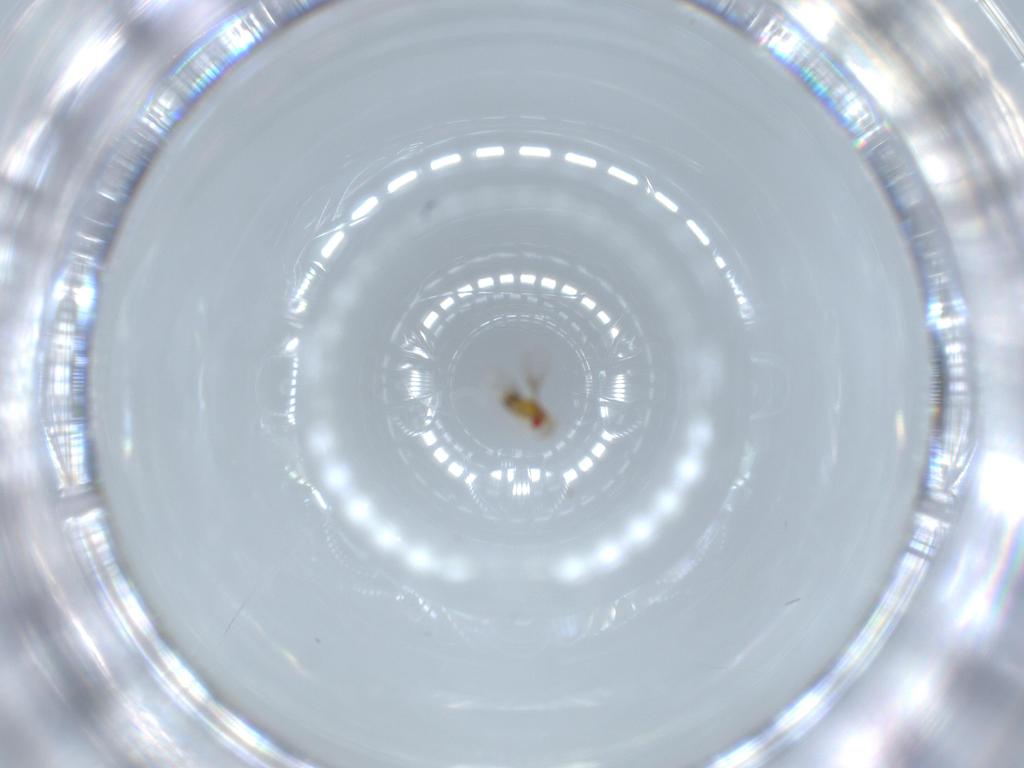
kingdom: Animalia
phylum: Arthropoda
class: Insecta
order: Hymenoptera
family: Trichogrammatidae
